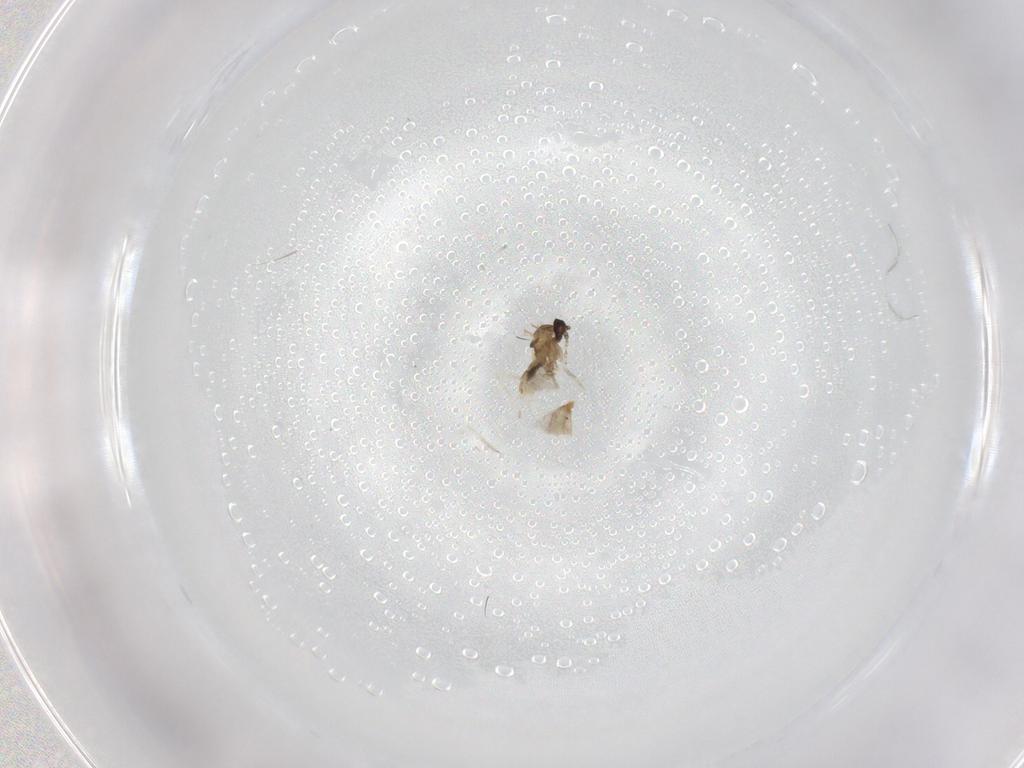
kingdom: Animalia
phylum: Arthropoda
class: Insecta
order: Diptera
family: Cecidomyiidae
